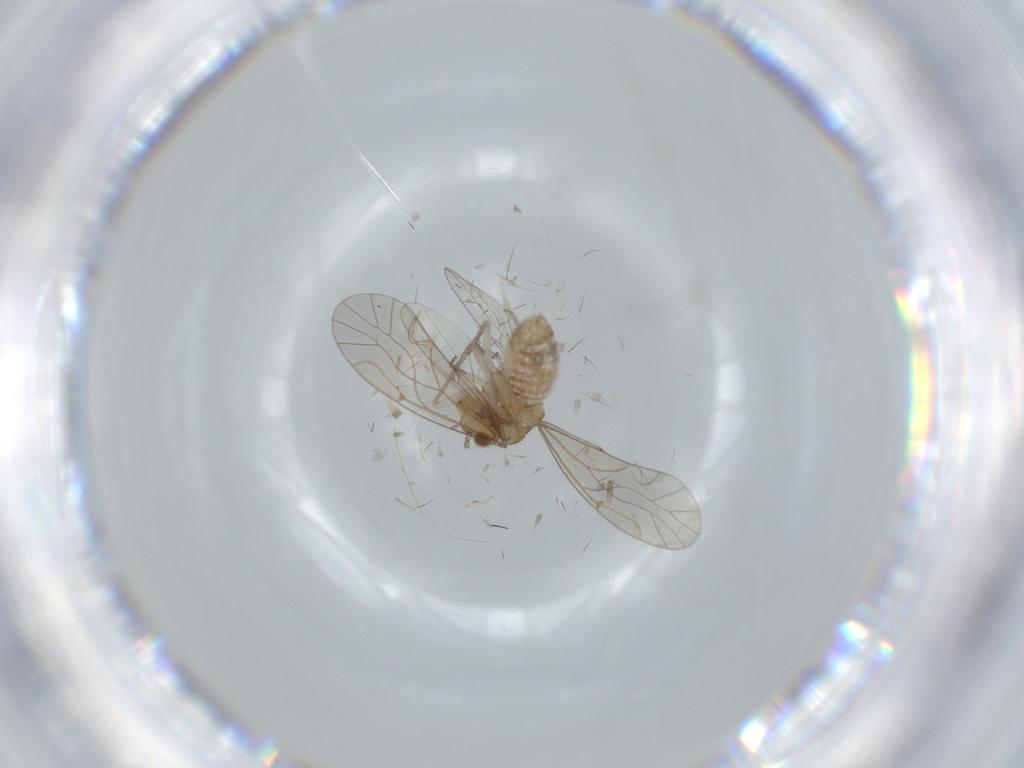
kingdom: Animalia
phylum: Arthropoda
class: Insecta
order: Psocodea
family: Lachesillidae
